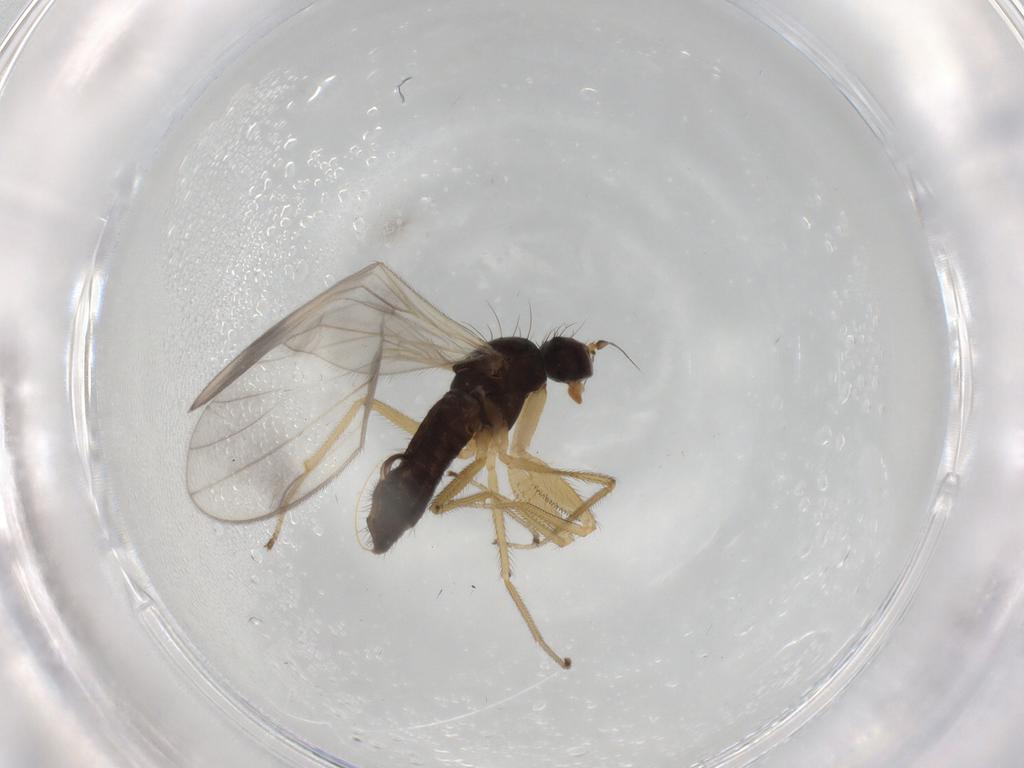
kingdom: Animalia
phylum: Arthropoda
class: Insecta
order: Diptera
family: Empididae
